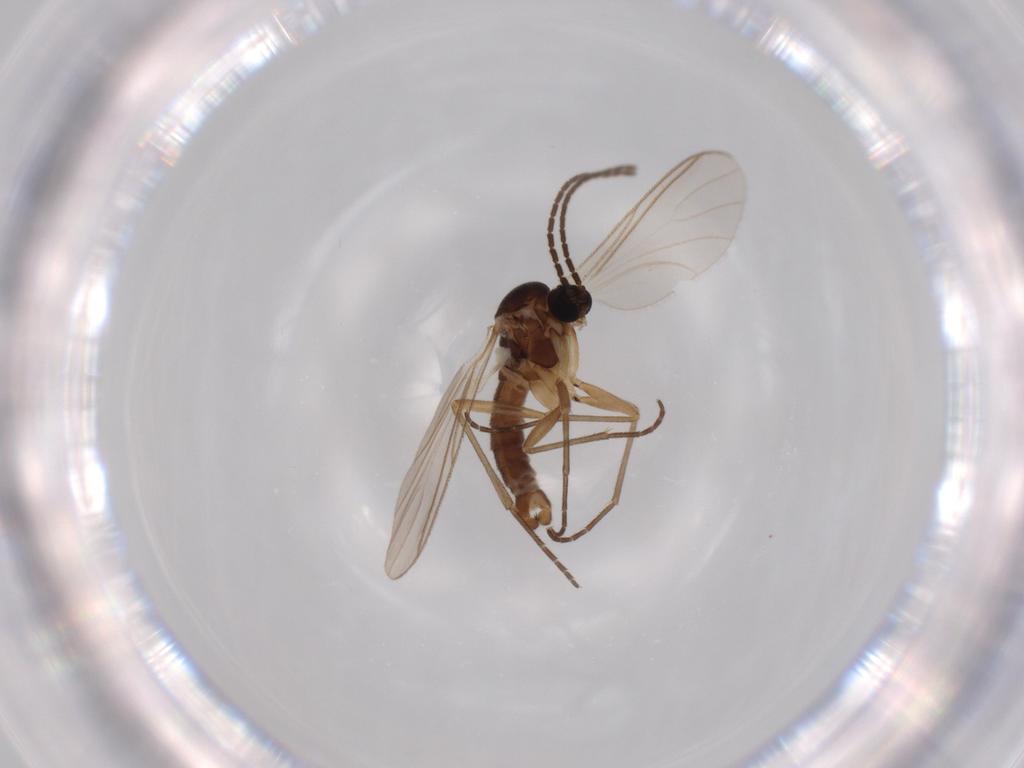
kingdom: Animalia
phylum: Arthropoda
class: Insecta
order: Diptera
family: Sciaridae
